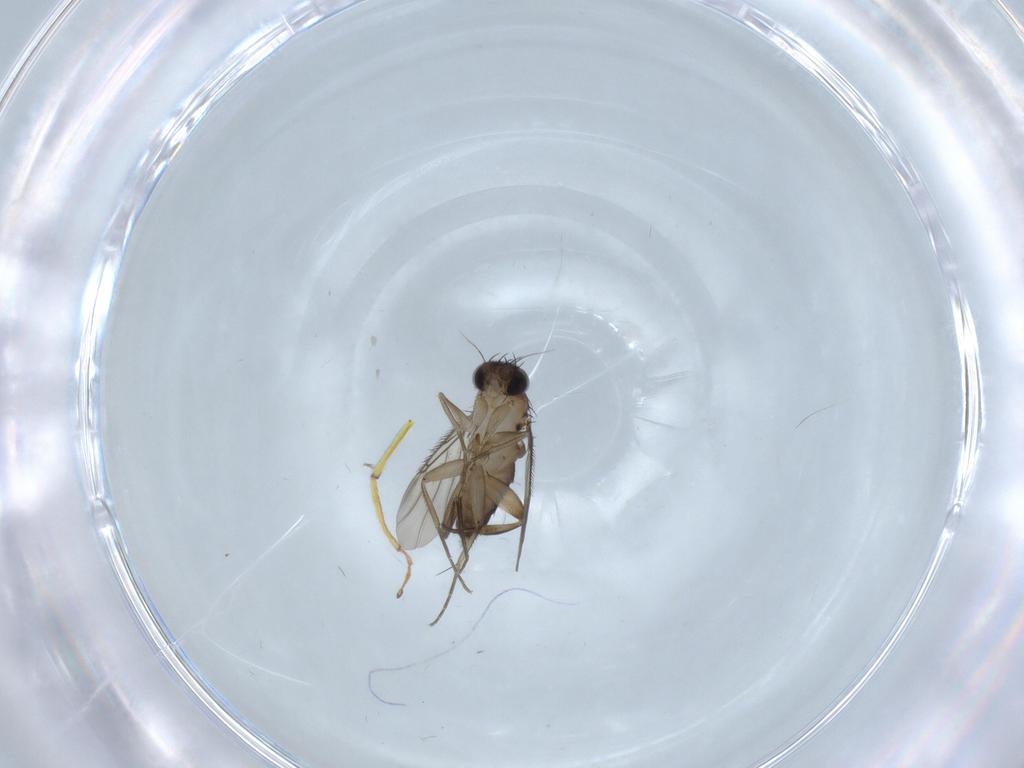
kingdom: Animalia
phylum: Arthropoda
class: Insecta
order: Diptera
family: Phoridae
